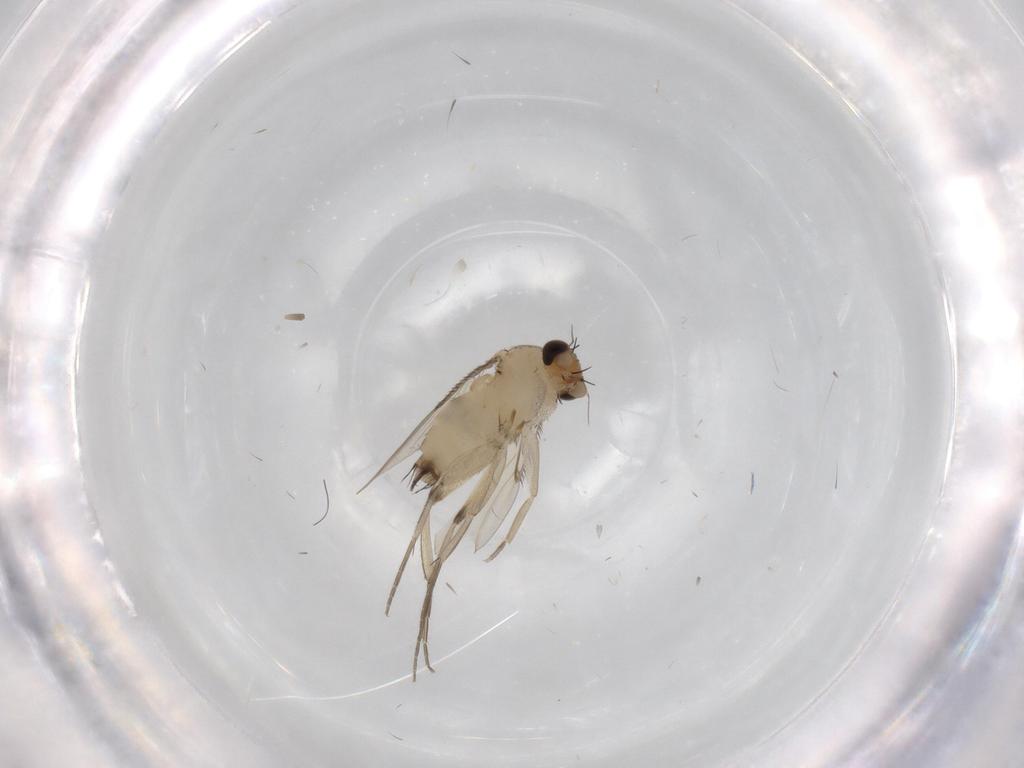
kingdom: Animalia
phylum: Arthropoda
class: Insecta
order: Diptera
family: Phoridae
